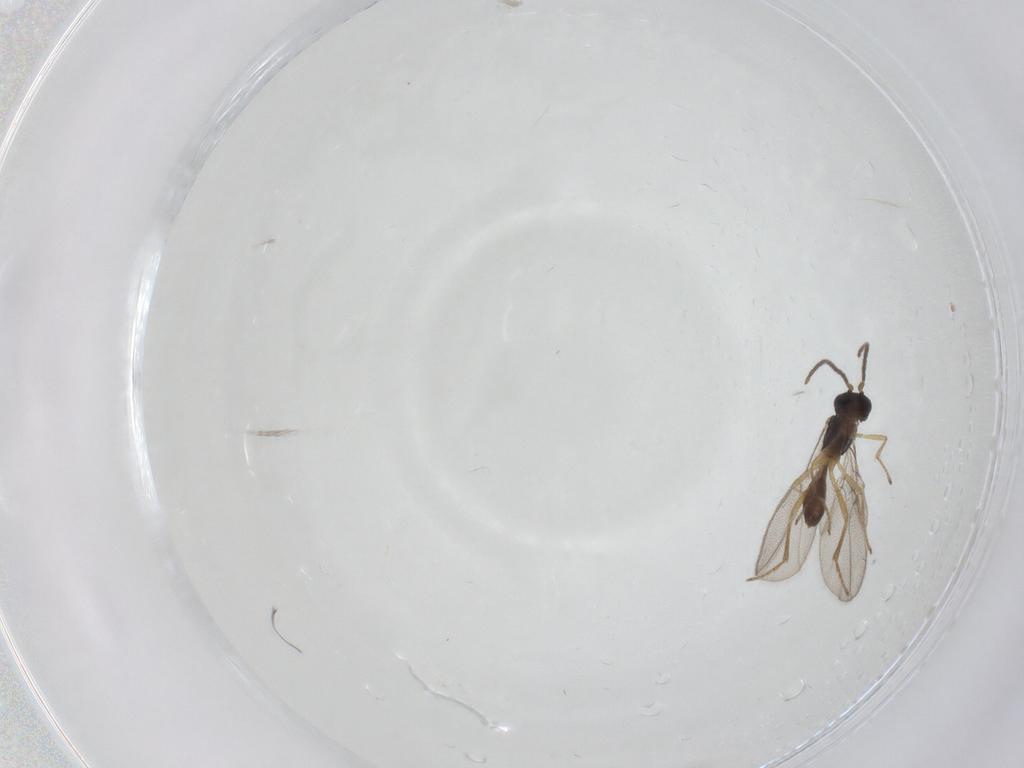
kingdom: Animalia
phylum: Arthropoda
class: Insecta
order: Hymenoptera
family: Braconidae
